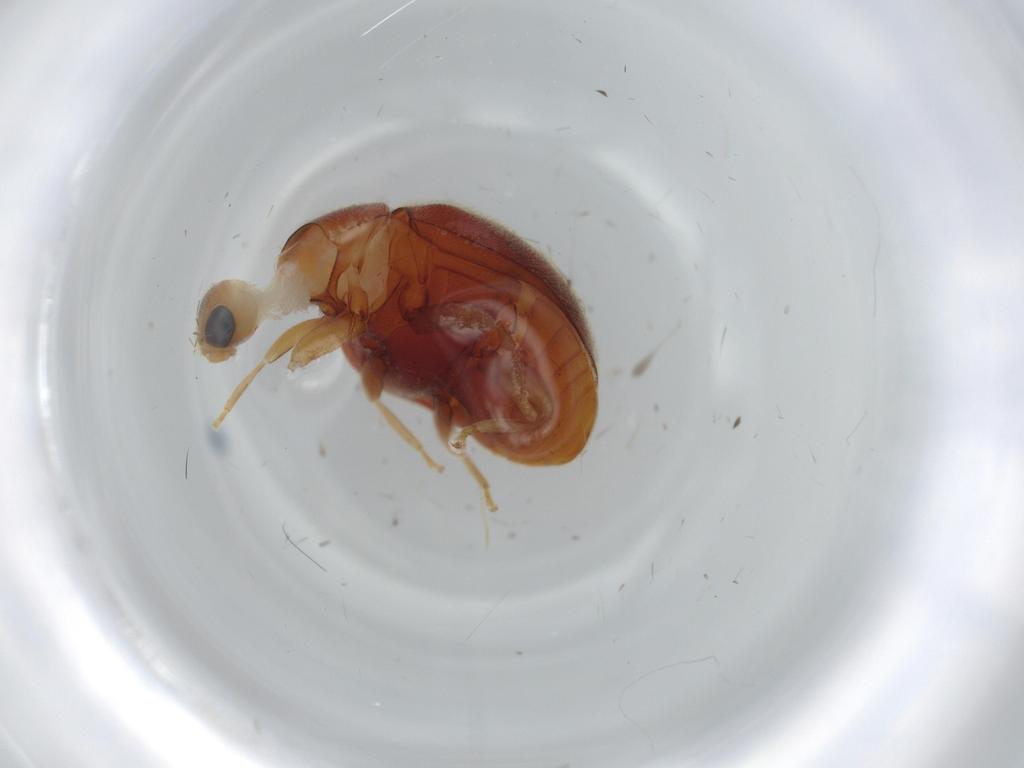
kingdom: Animalia
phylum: Arthropoda
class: Insecta
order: Coleoptera
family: Coccinellidae
